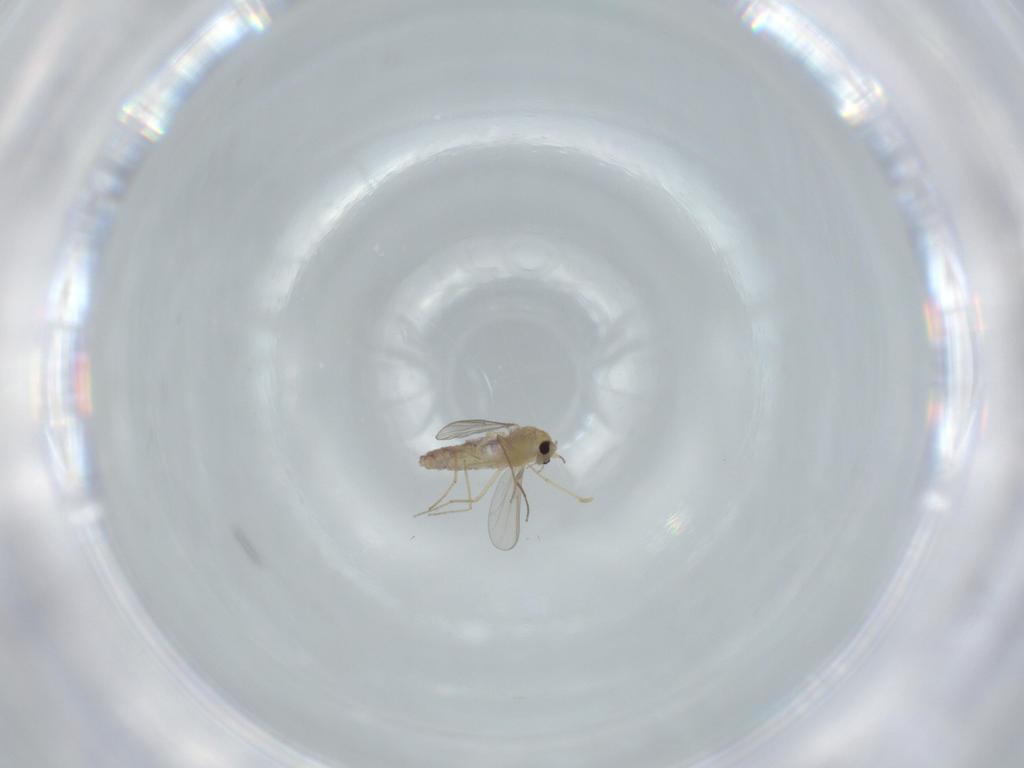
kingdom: Animalia
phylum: Arthropoda
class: Insecta
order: Diptera
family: Chironomidae
